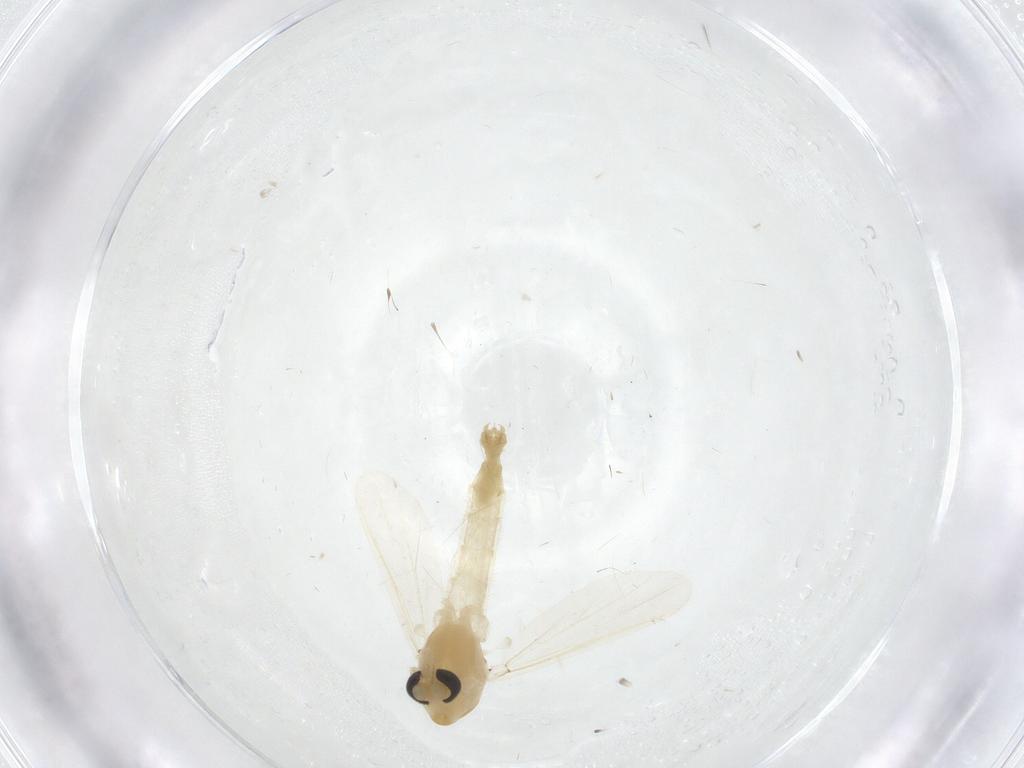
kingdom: Animalia
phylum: Arthropoda
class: Insecta
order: Diptera
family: Chironomidae
